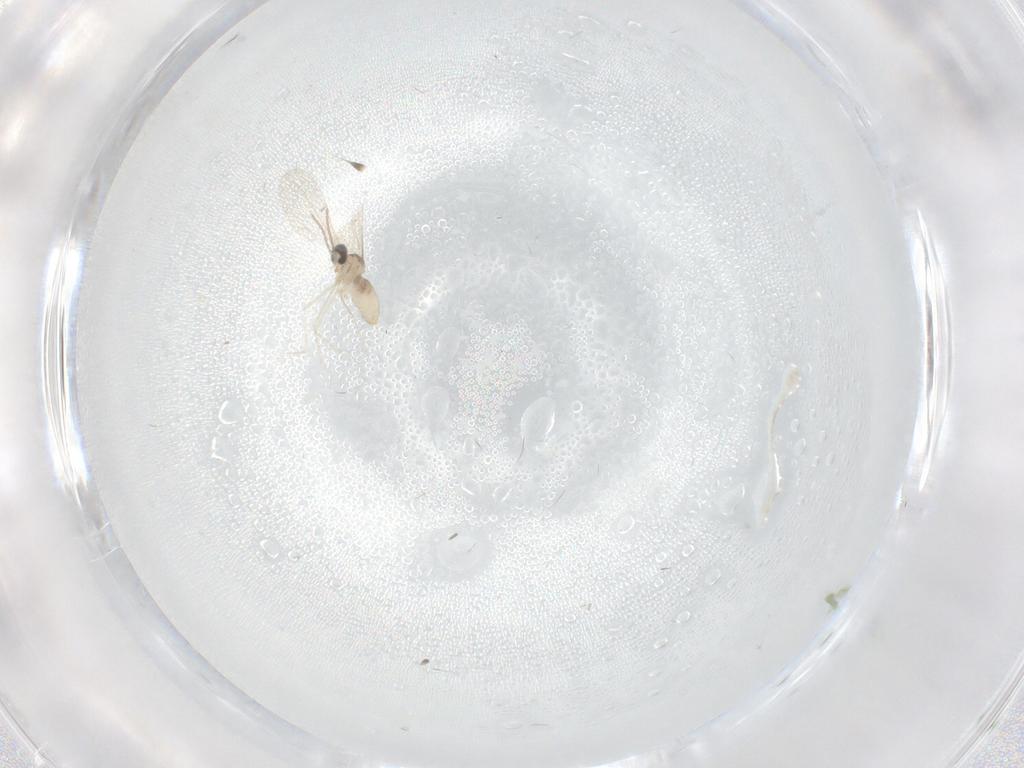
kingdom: Animalia
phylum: Arthropoda
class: Insecta
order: Diptera
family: Cecidomyiidae
